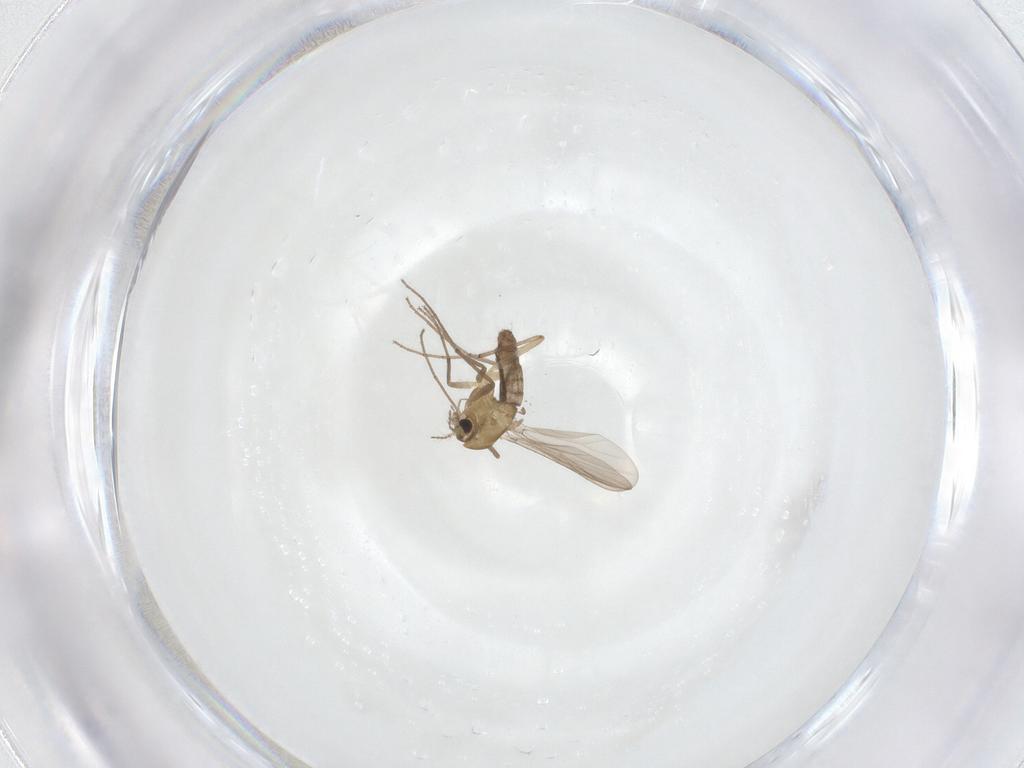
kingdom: Animalia
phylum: Arthropoda
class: Insecta
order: Diptera
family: Chironomidae
